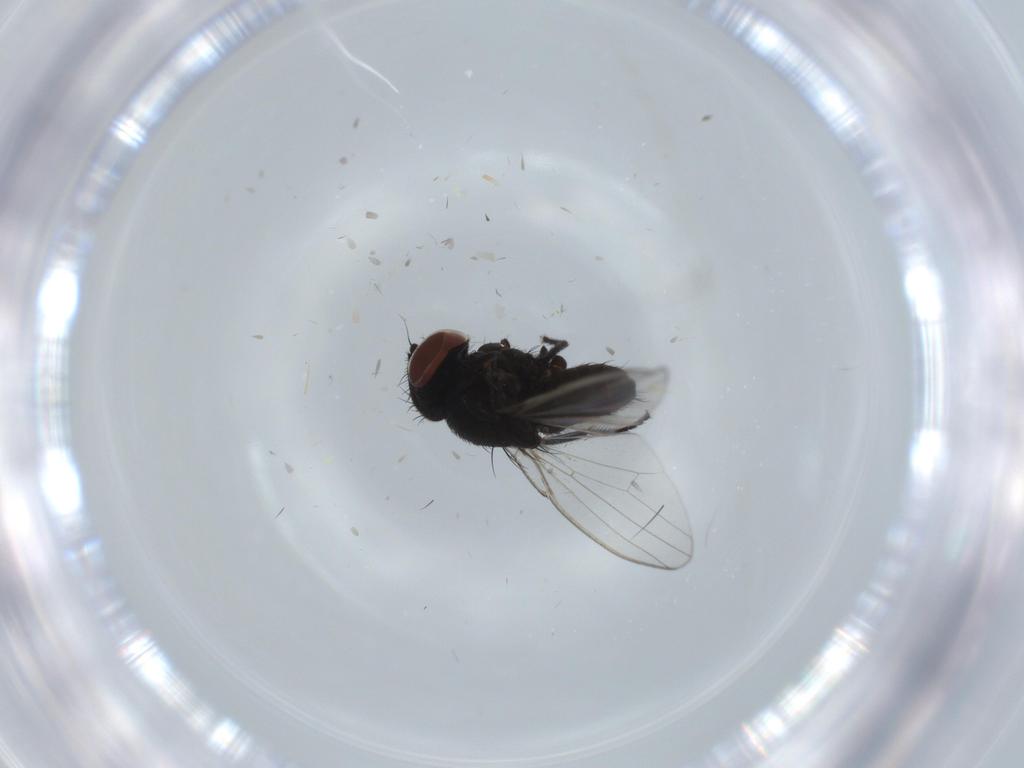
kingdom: Animalia
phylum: Arthropoda
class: Insecta
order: Diptera
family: Milichiidae
